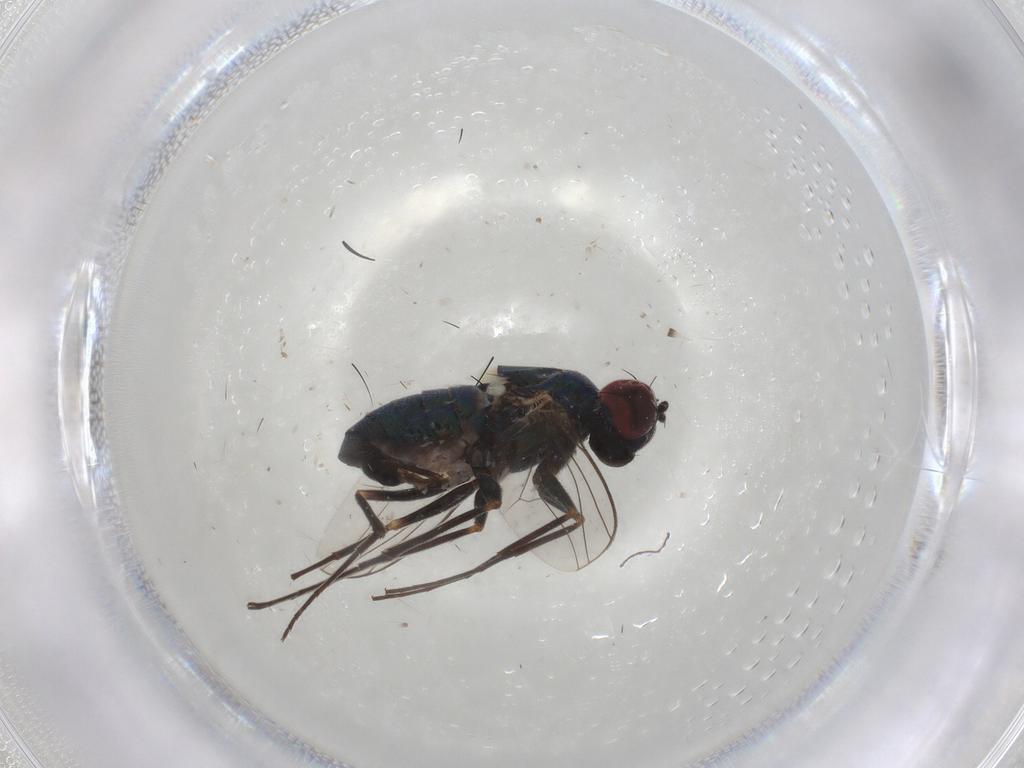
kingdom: Animalia
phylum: Arthropoda
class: Insecta
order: Diptera
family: Dolichopodidae
